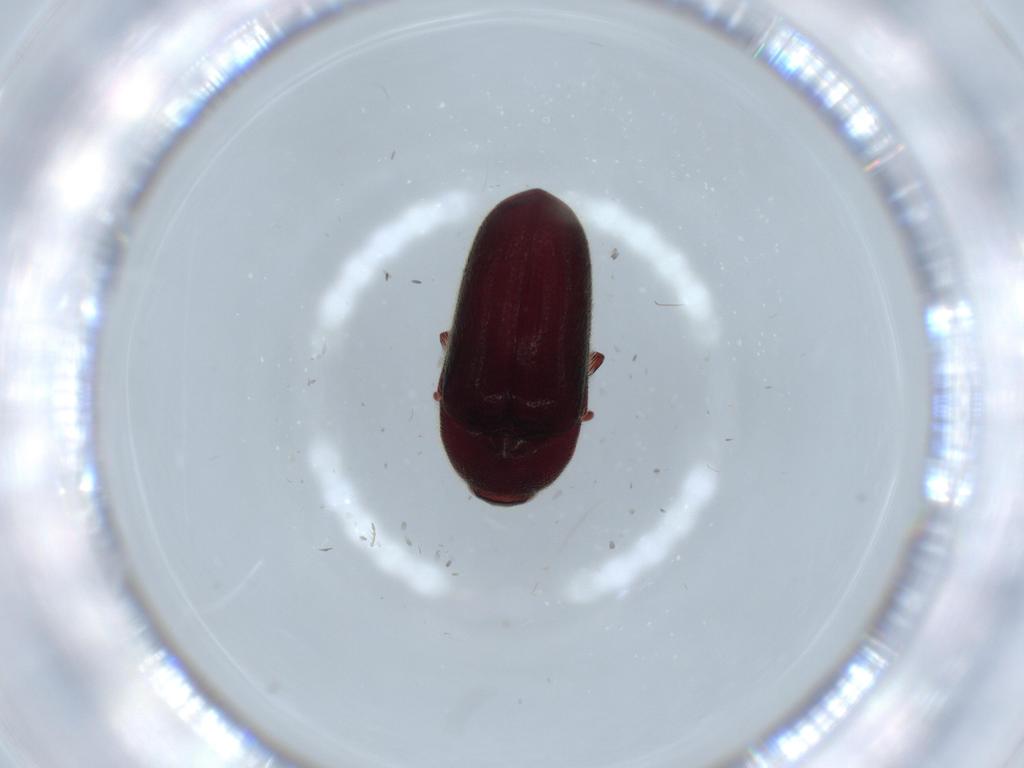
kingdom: Animalia
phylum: Arthropoda
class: Insecta
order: Coleoptera
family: Throscidae
